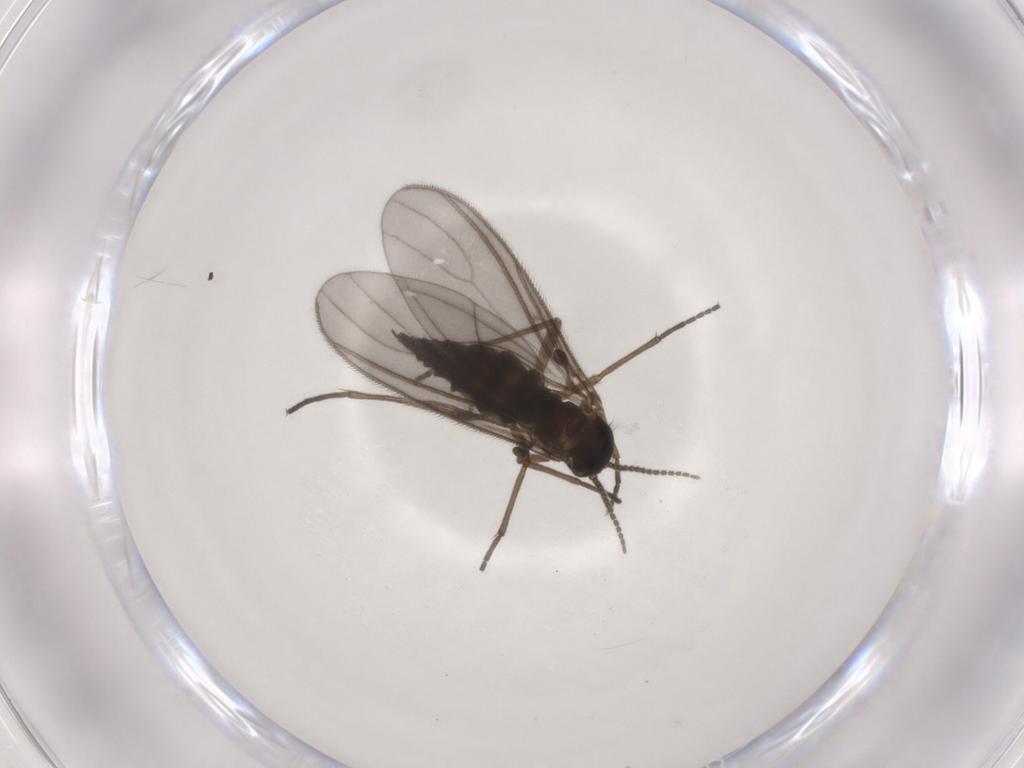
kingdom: Animalia
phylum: Arthropoda
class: Insecta
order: Diptera
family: Sciaridae
